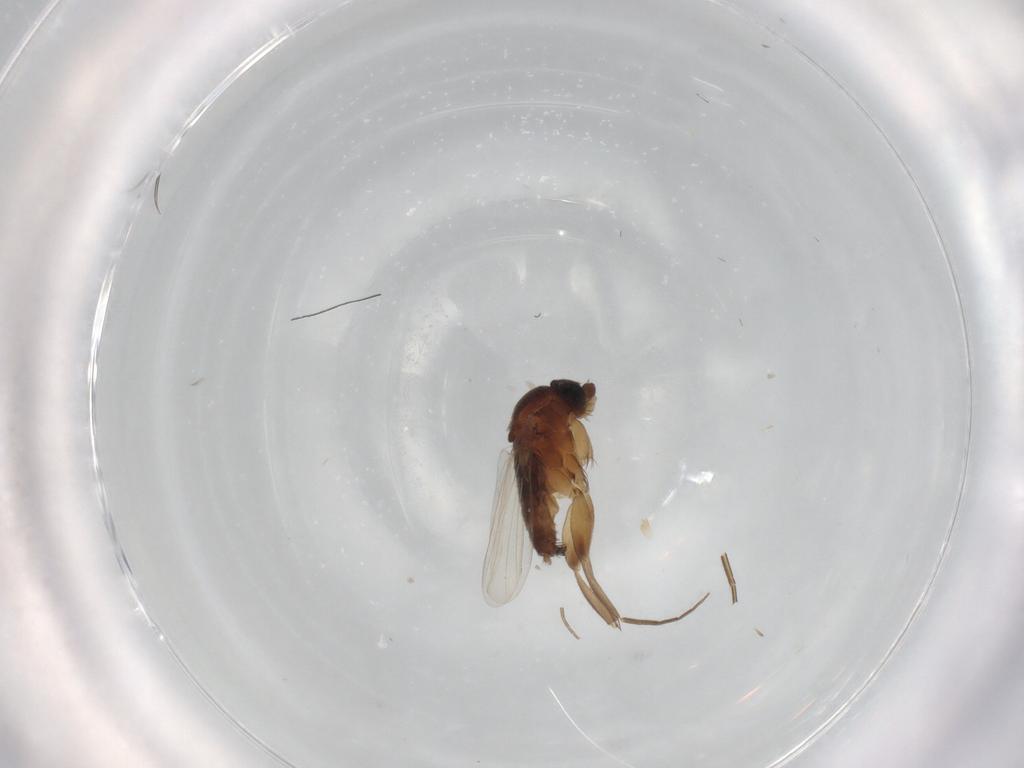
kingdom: Animalia
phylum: Arthropoda
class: Insecta
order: Diptera
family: Phoridae
